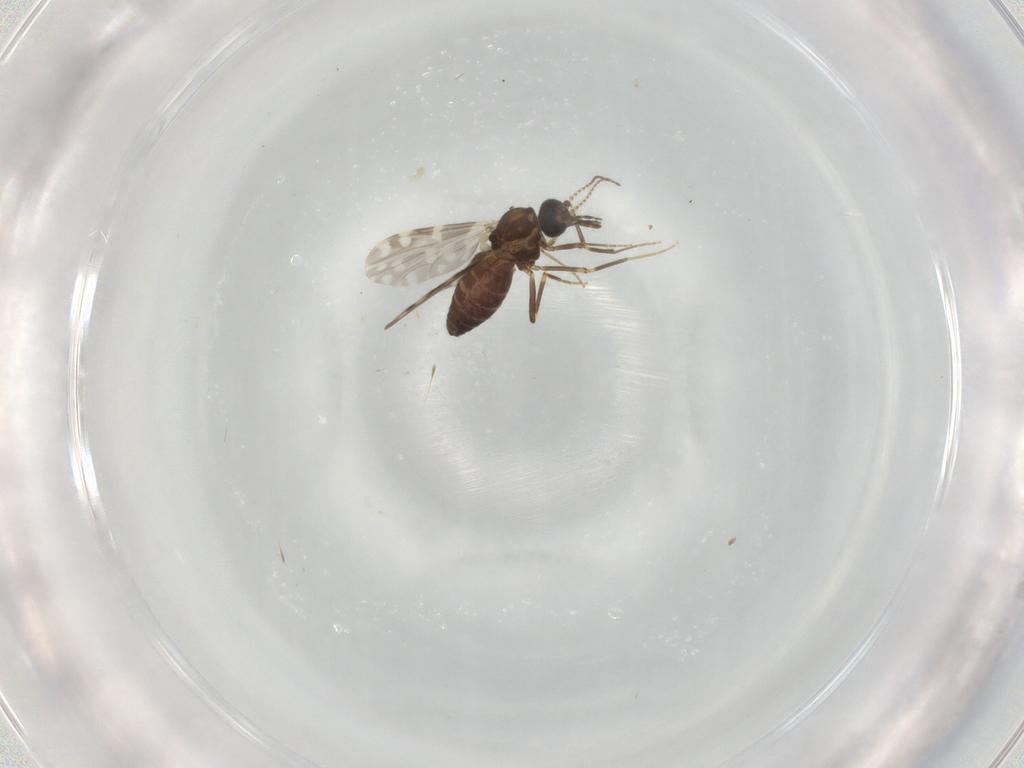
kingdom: Animalia
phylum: Arthropoda
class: Insecta
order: Diptera
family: Ceratopogonidae
